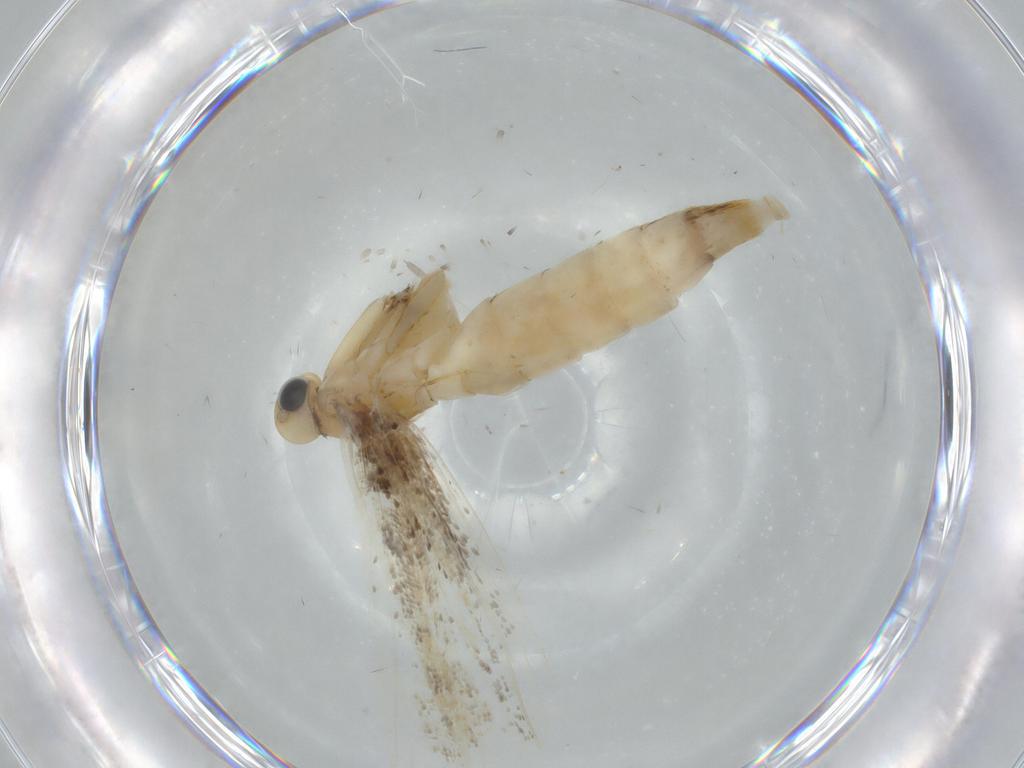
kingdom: Animalia
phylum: Arthropoda
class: Insecta
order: Lepidoptera
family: Gracillariidae
